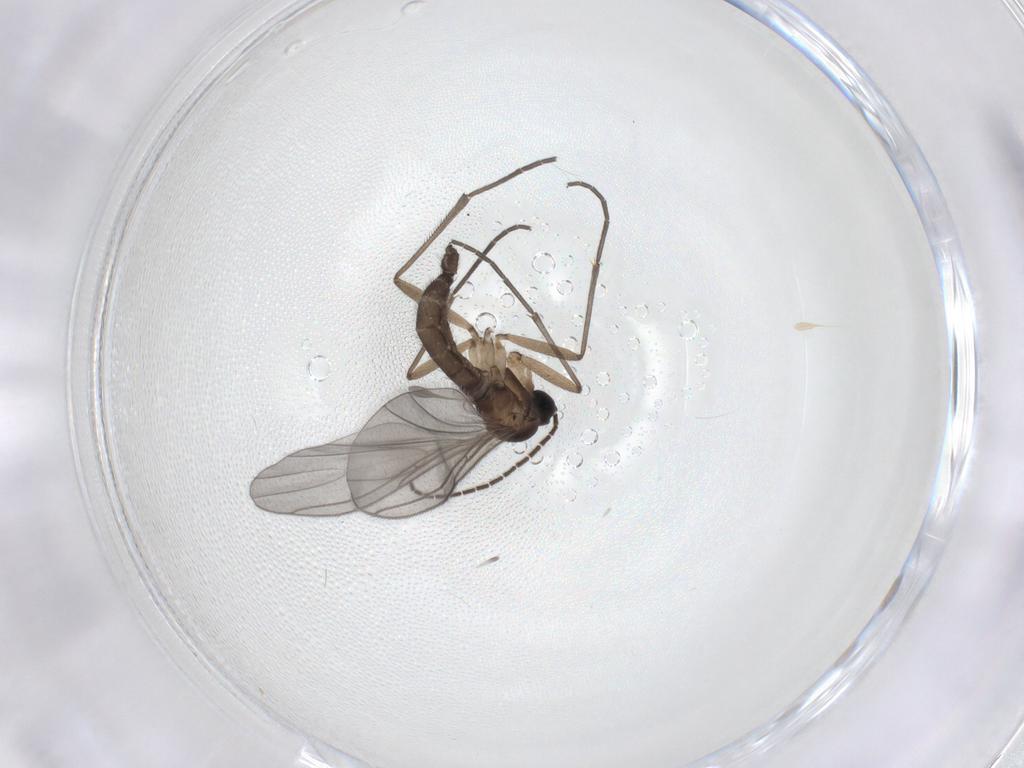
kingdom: Animalia
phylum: Arthropoda
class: Insecta
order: Diptera
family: Sciaridae
